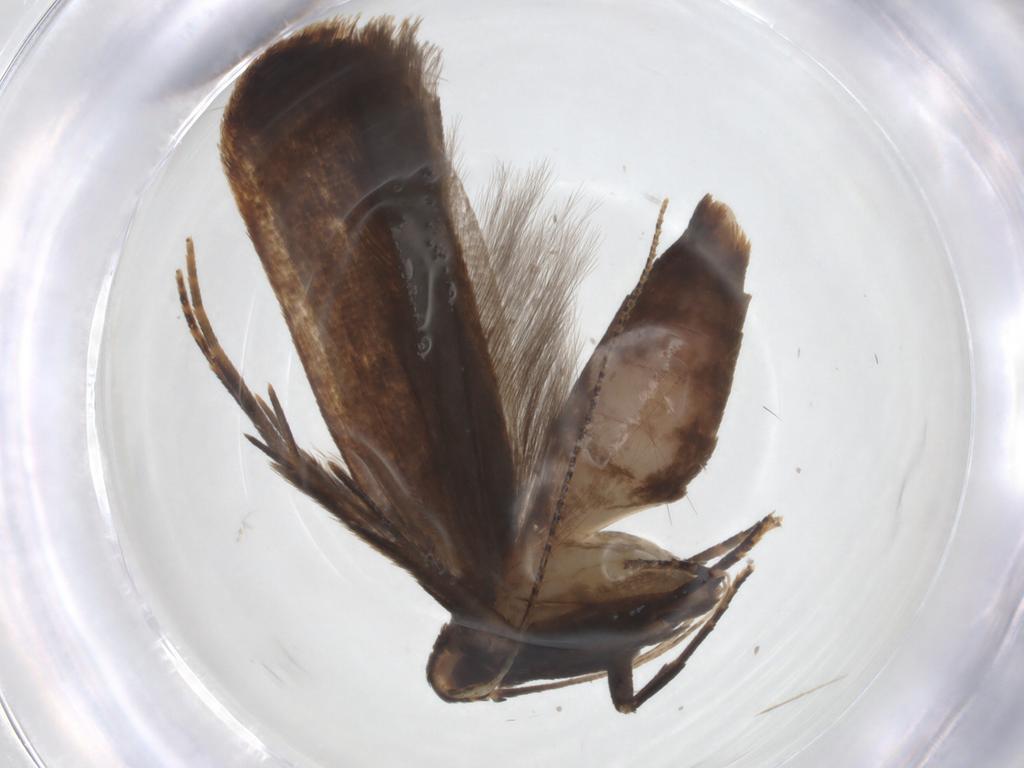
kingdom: Animalia
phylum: Arthropoda
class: Insecta
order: Lepidoptera
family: Gelechiidae
